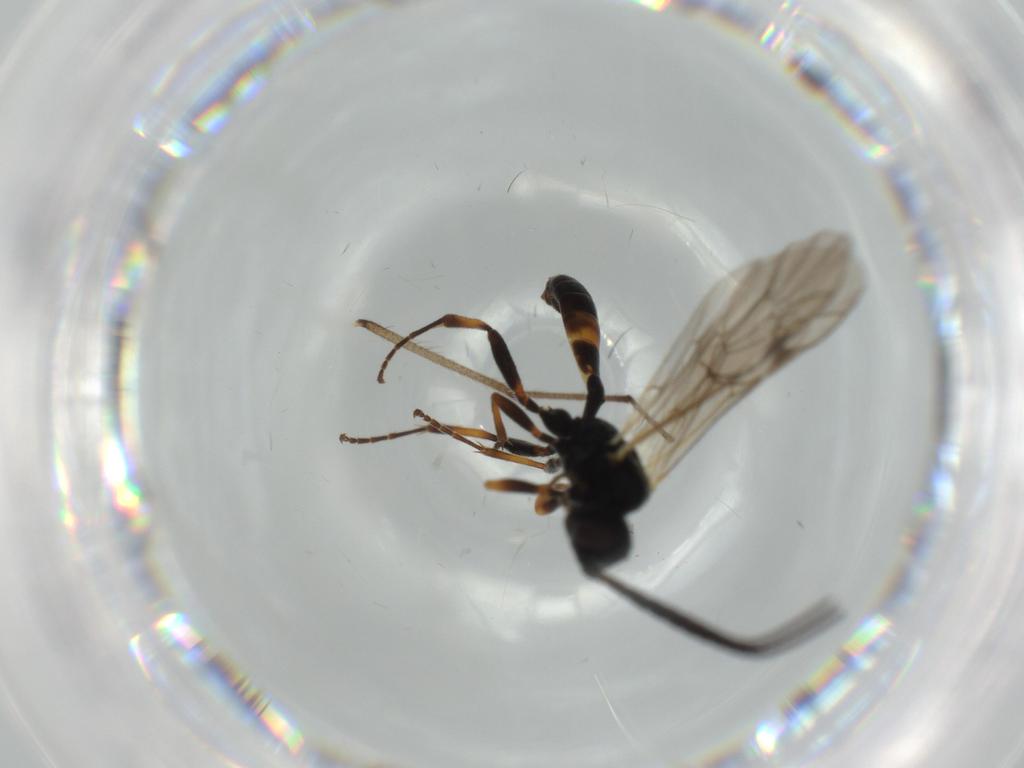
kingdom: Animalia
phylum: Arthropoda
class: Insecta
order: Hymenoptera
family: Ichneumonidae
